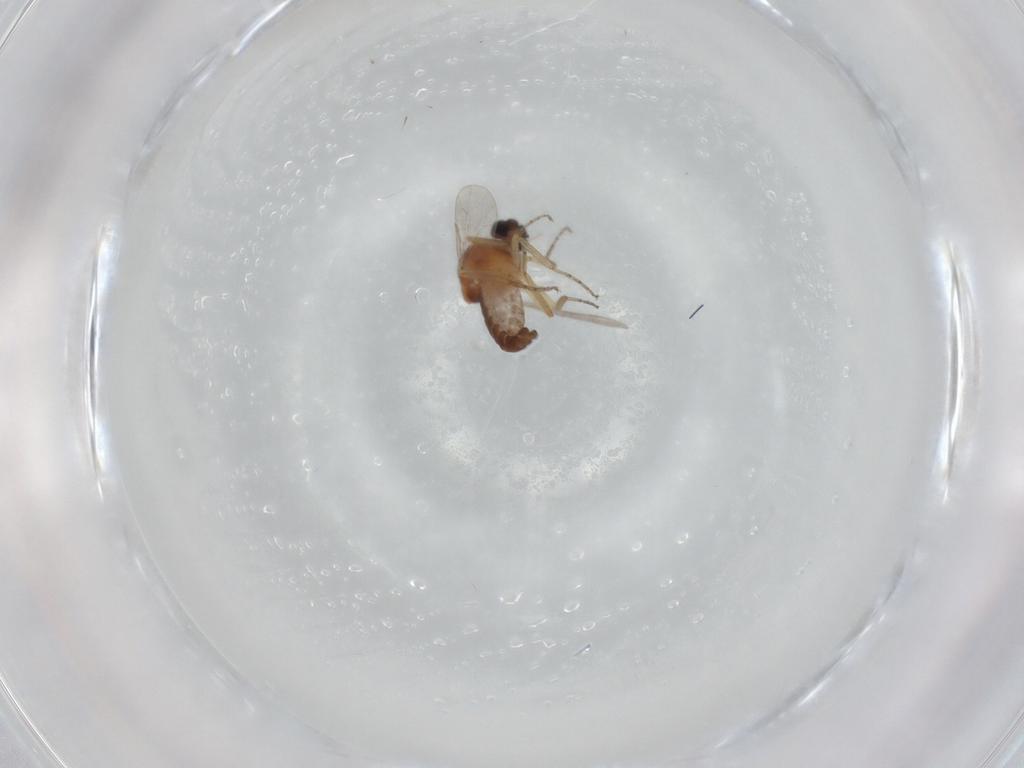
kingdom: Animalia
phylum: Arthropoda
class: Insecta
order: Diptera
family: Ceratopogonidae
